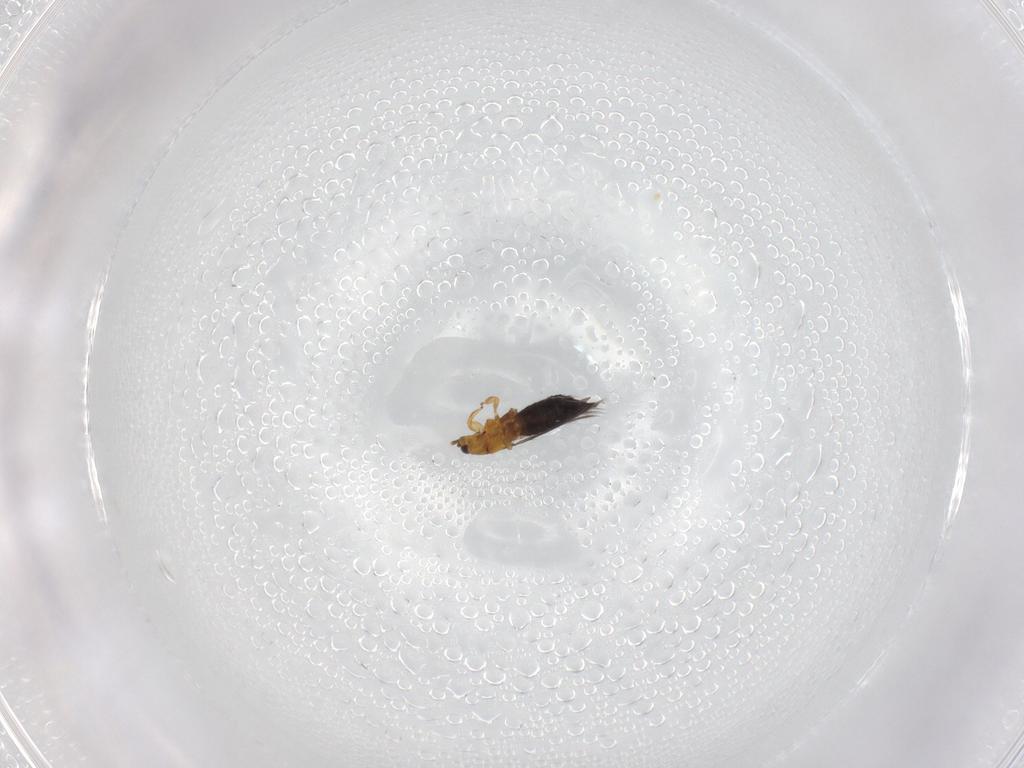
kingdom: Animalia
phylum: Arthropoda
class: Insecta
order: Thysanoptera
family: Thripidae
